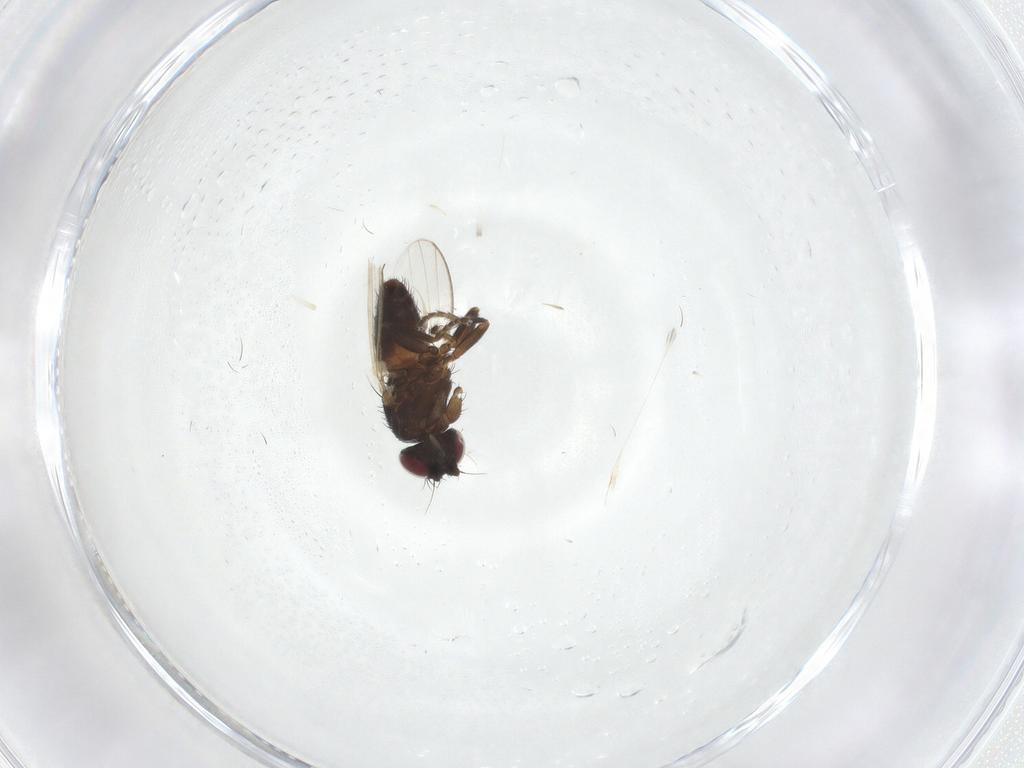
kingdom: Animalia
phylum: Arthropoda
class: Insecta
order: Diptera
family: Milichiidae
